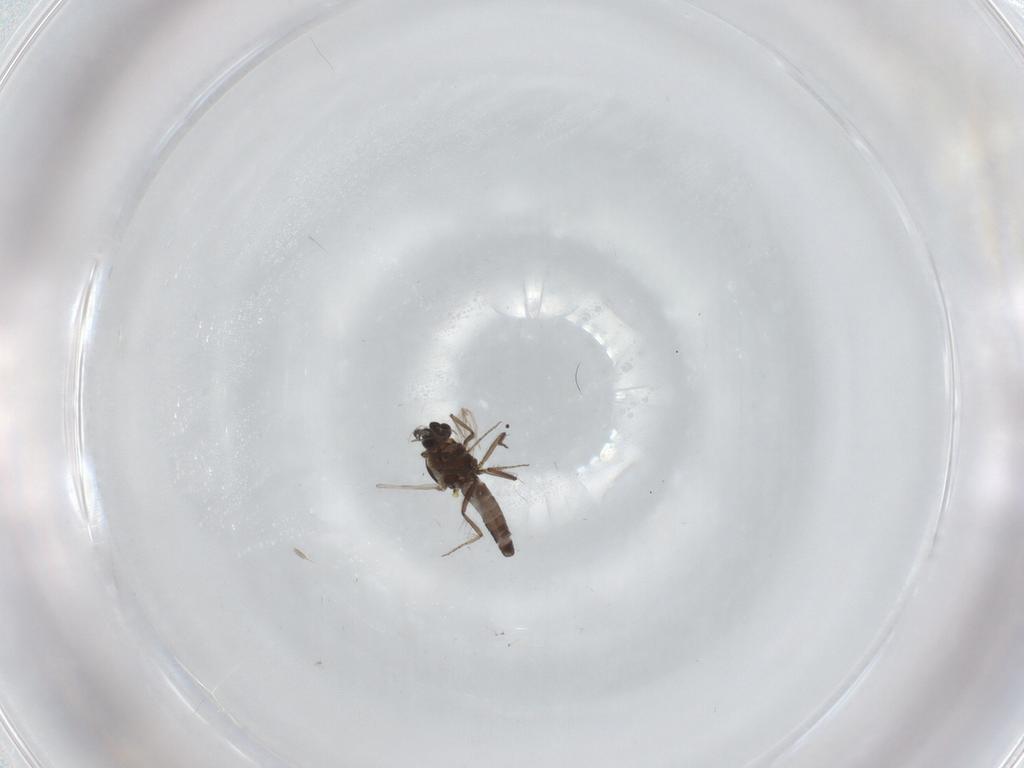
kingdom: Animalia
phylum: Arthropoda
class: Insecta
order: Diptera
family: Ceratopogonidae
